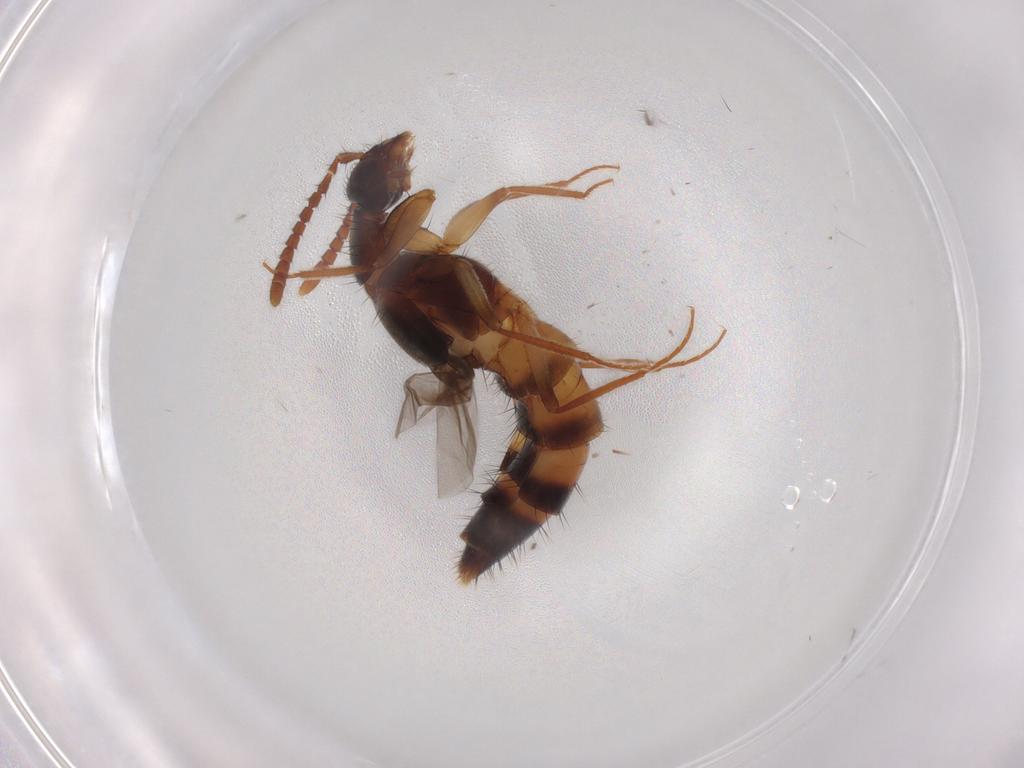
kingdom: Animalia
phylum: Arthropoda
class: Insecta
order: Coleoptera
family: Staphylinidae
